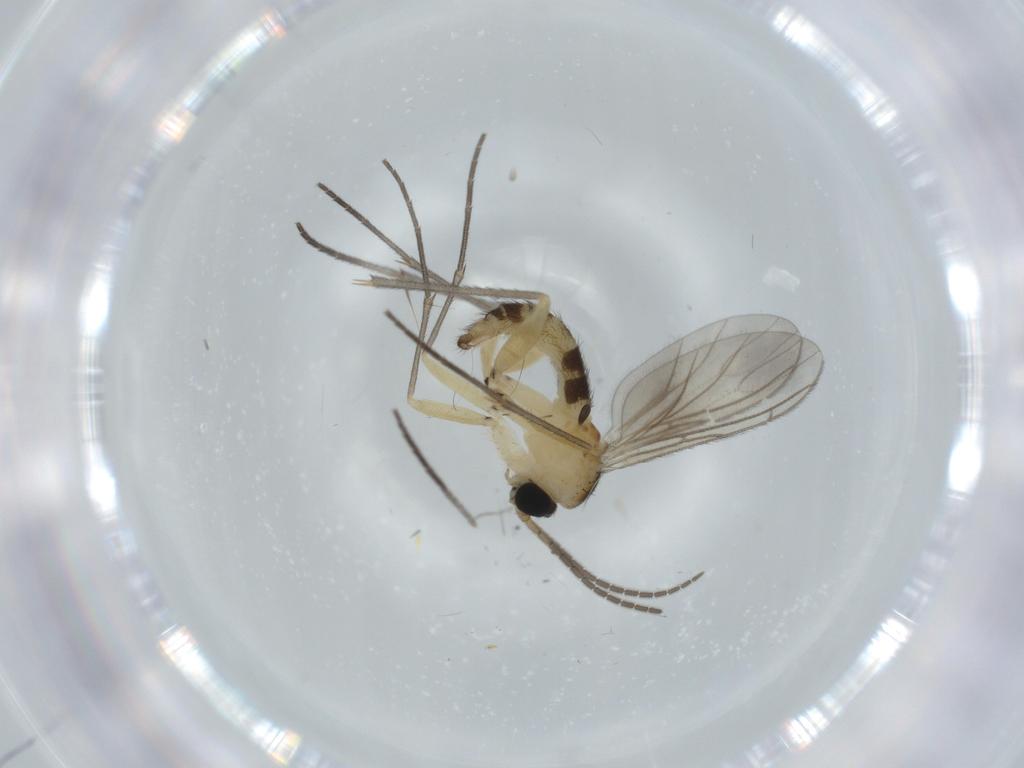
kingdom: Animalia
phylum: Arthropoda
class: Insecta
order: Diptera
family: Sciaridae
